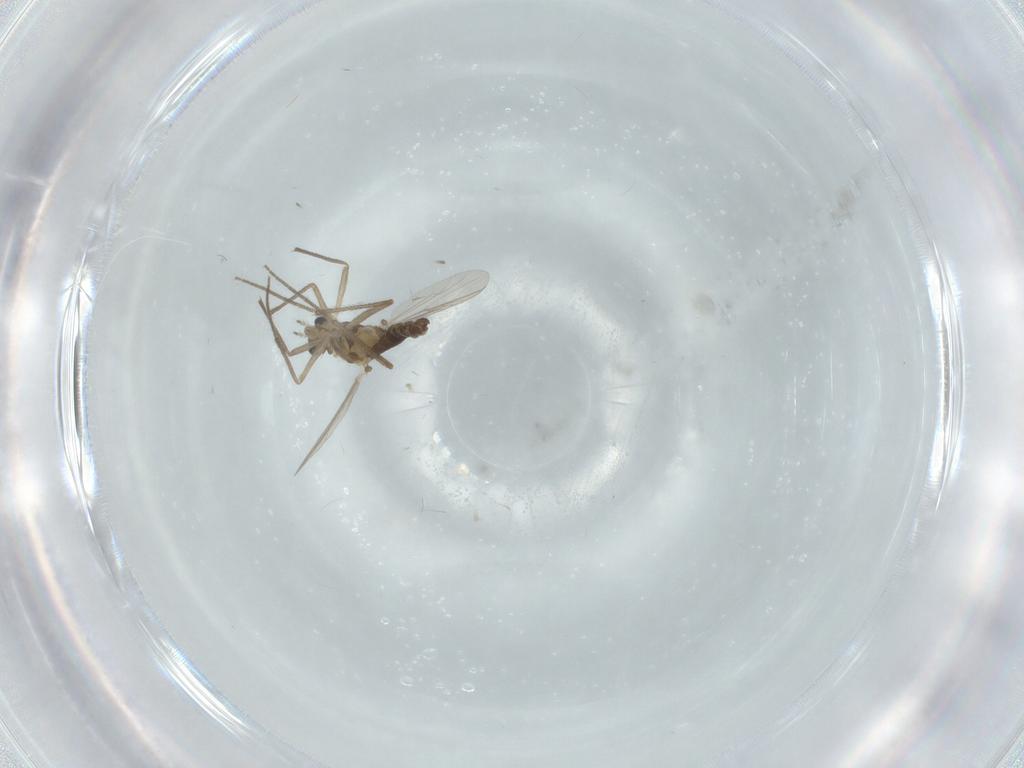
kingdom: Animalia
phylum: Arthropoda
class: Insecta
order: Diptera
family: Chironomidae
